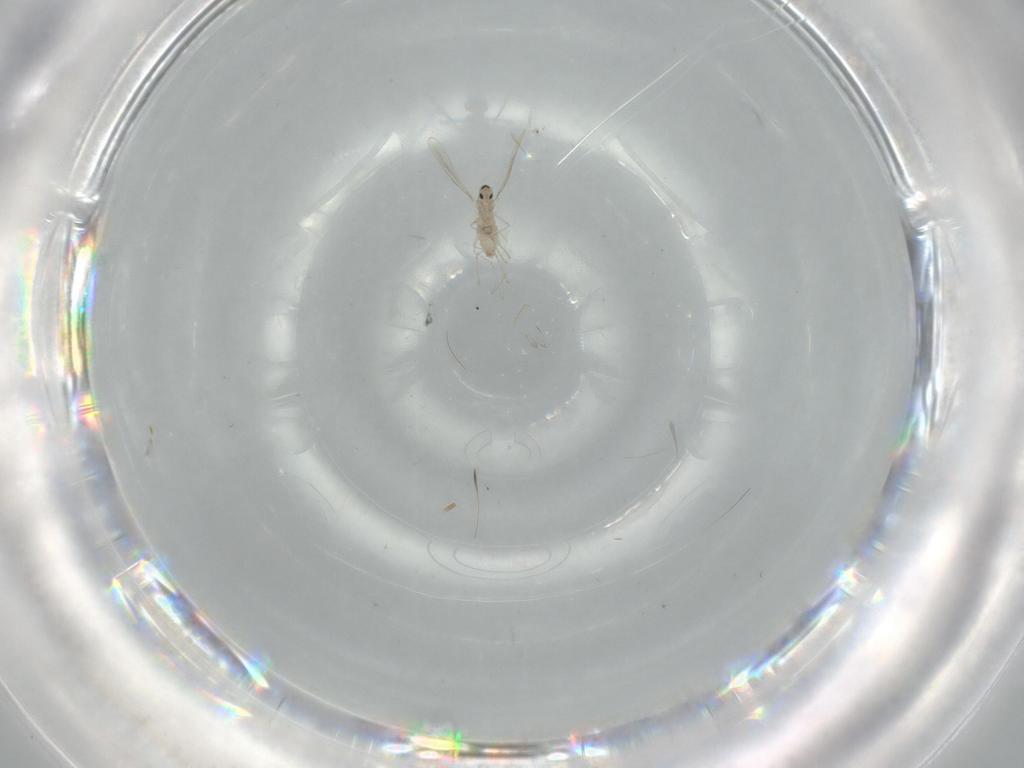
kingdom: Animalia
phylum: Arthropoda
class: Insecta
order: Diptera
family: Cecidomyiidae
